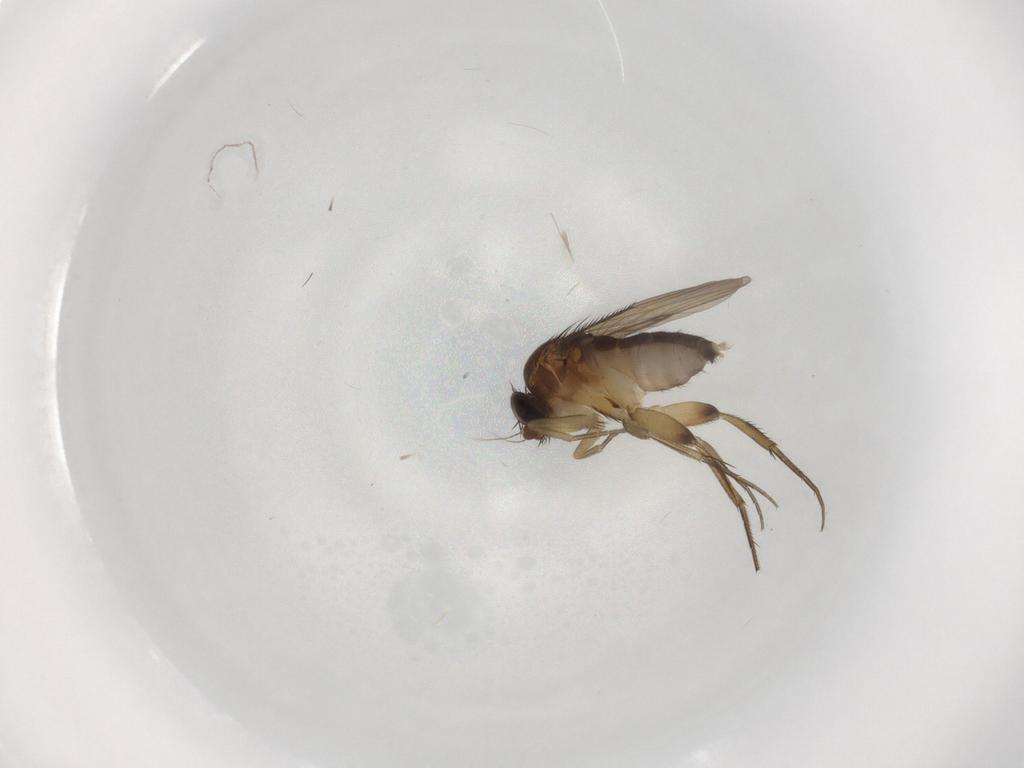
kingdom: Animalia
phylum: Arthropoda
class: Insecta
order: Diptera
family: Phoridae
